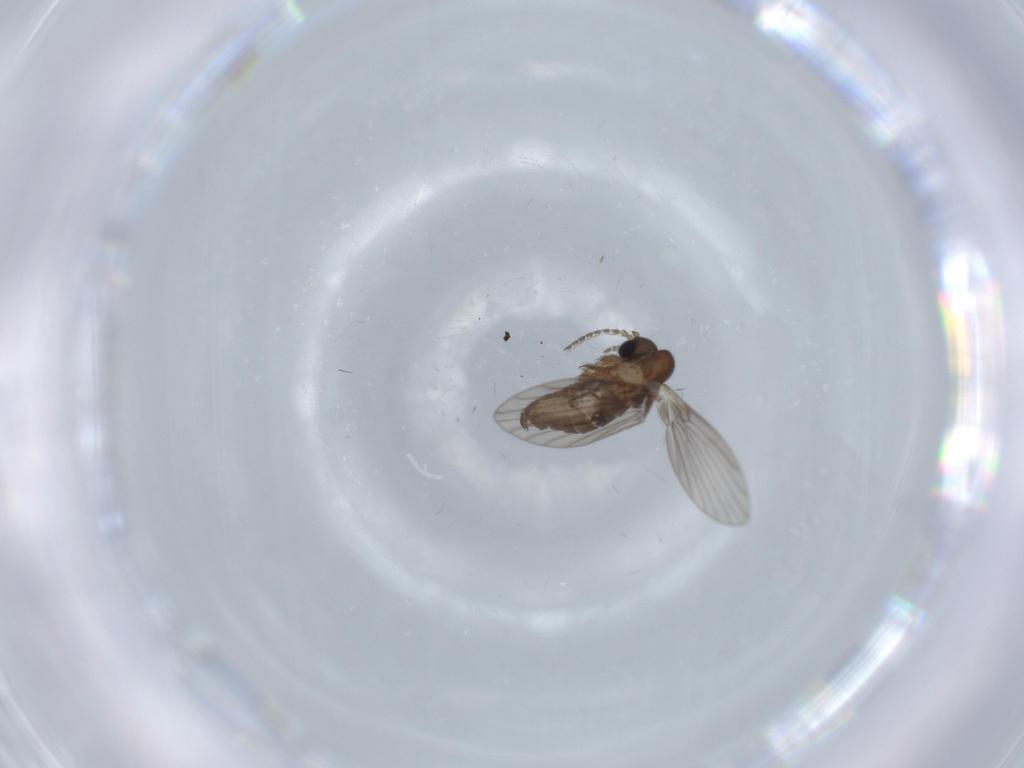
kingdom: Animalia
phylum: Arthropoda
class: Insecta
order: Diptera
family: Psychodidae
